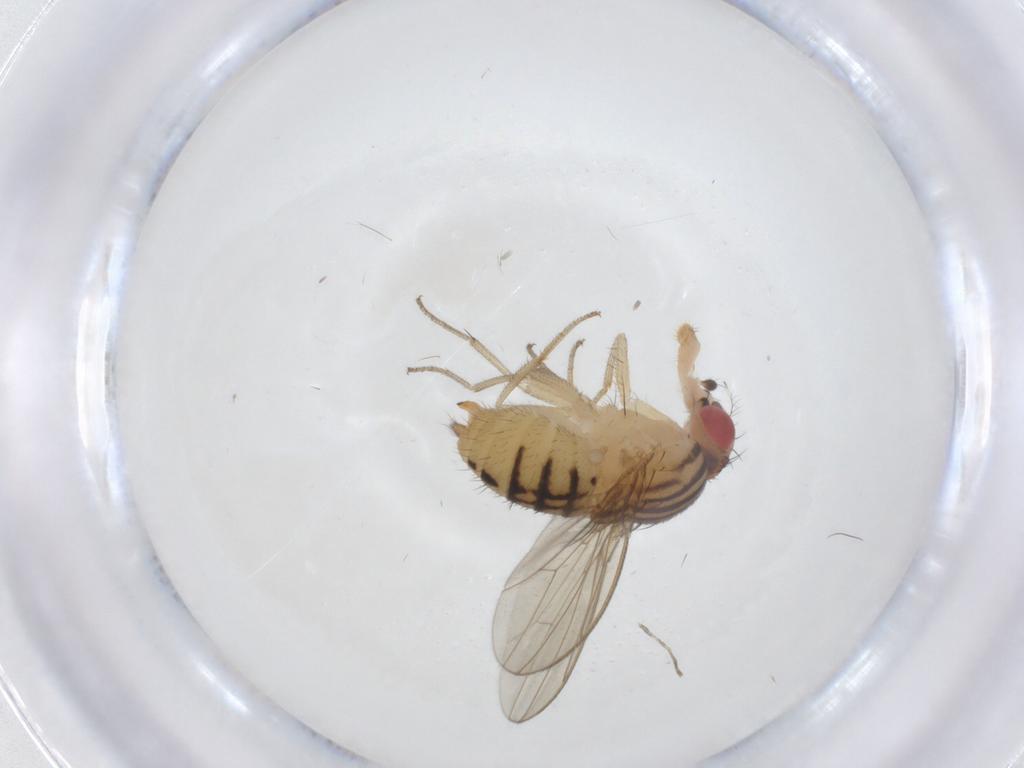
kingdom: Animalia
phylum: Arthropoda
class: Insecta
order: Diptera
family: Drosophilidae
